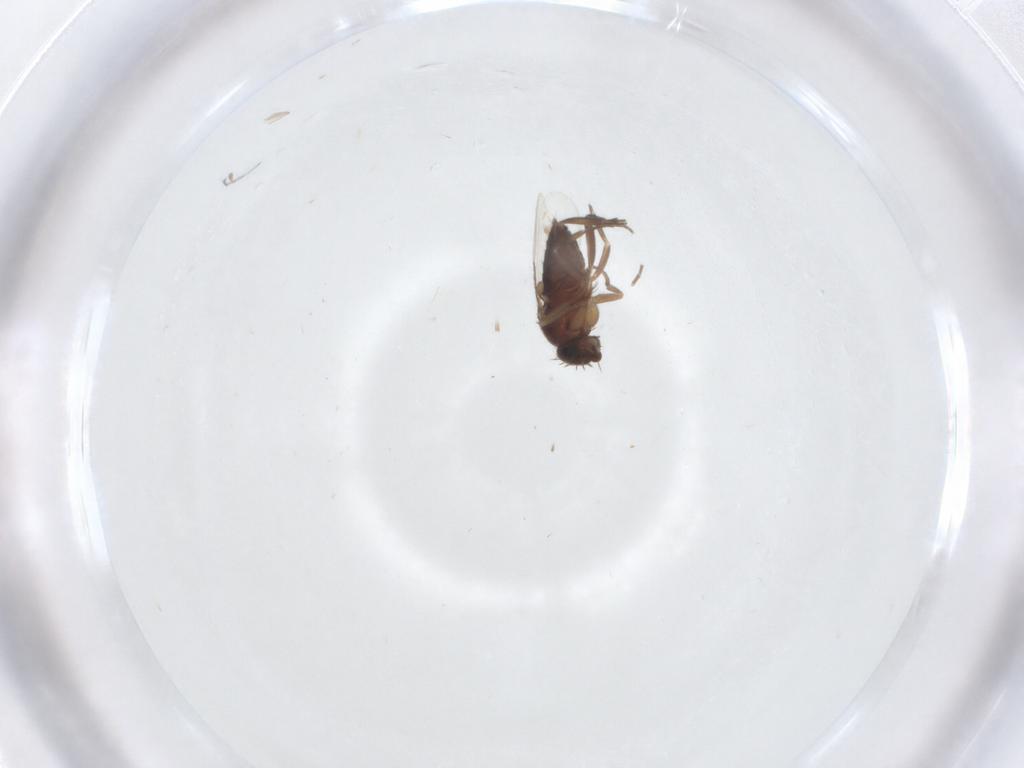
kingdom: Animalia
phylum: Arthropoda
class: Insecta
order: Diptera
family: Phoridae
